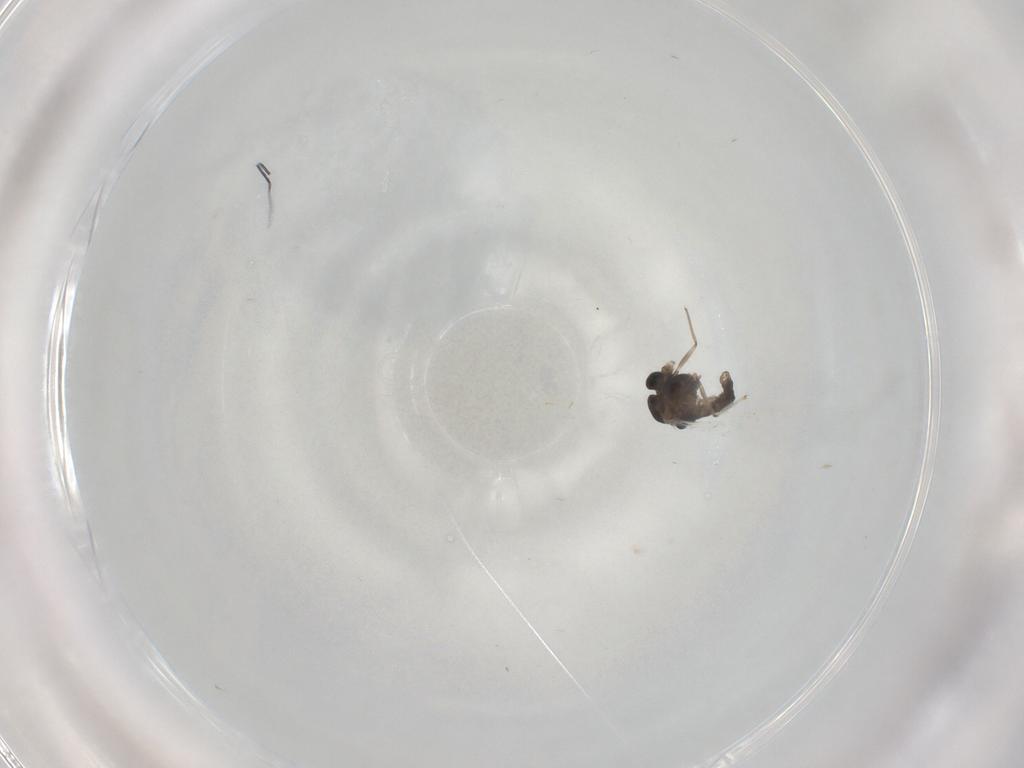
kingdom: Animalia
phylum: Arthropoda
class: Insecta
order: Diptera
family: Chironomidae
